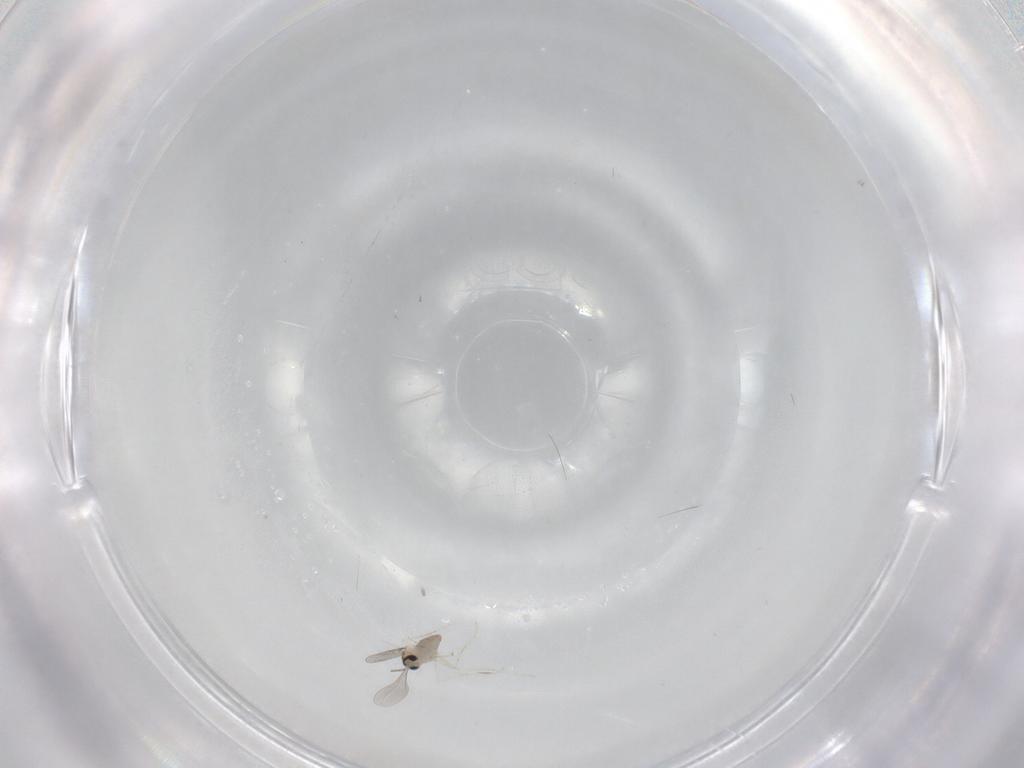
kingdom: Animalia
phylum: Arthropoda
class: Insecta
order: Diptera
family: Cecidomyiidae
